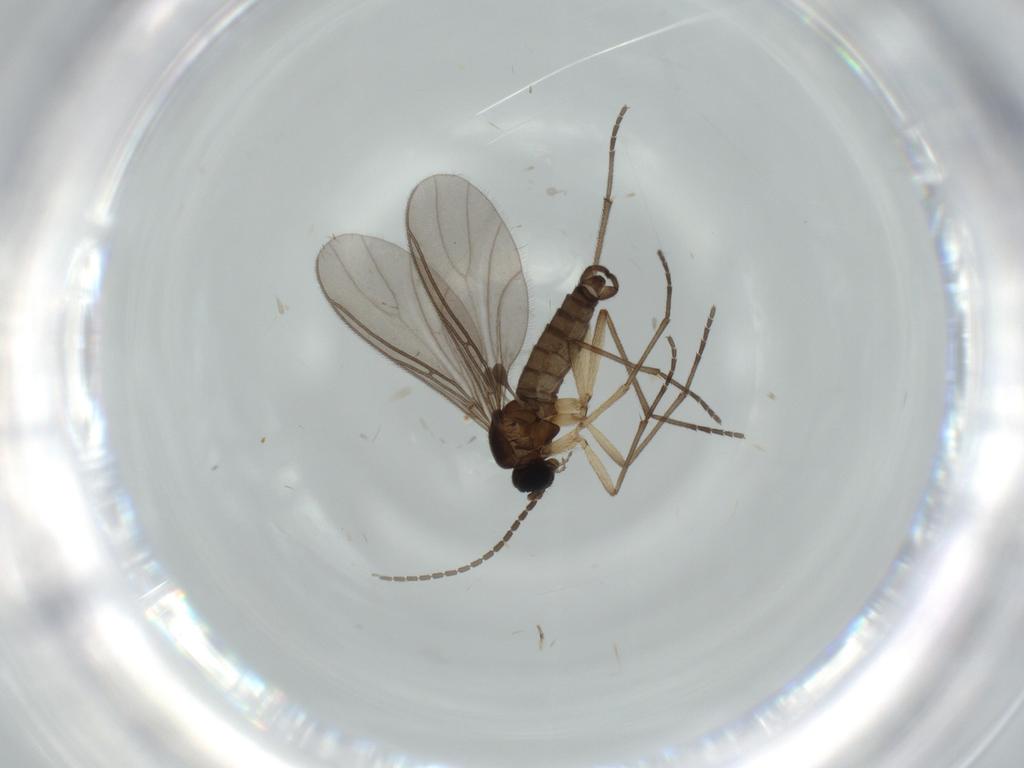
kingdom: Animalia
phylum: Arthropoda
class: Insecta
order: Diptera
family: Sciaridae
